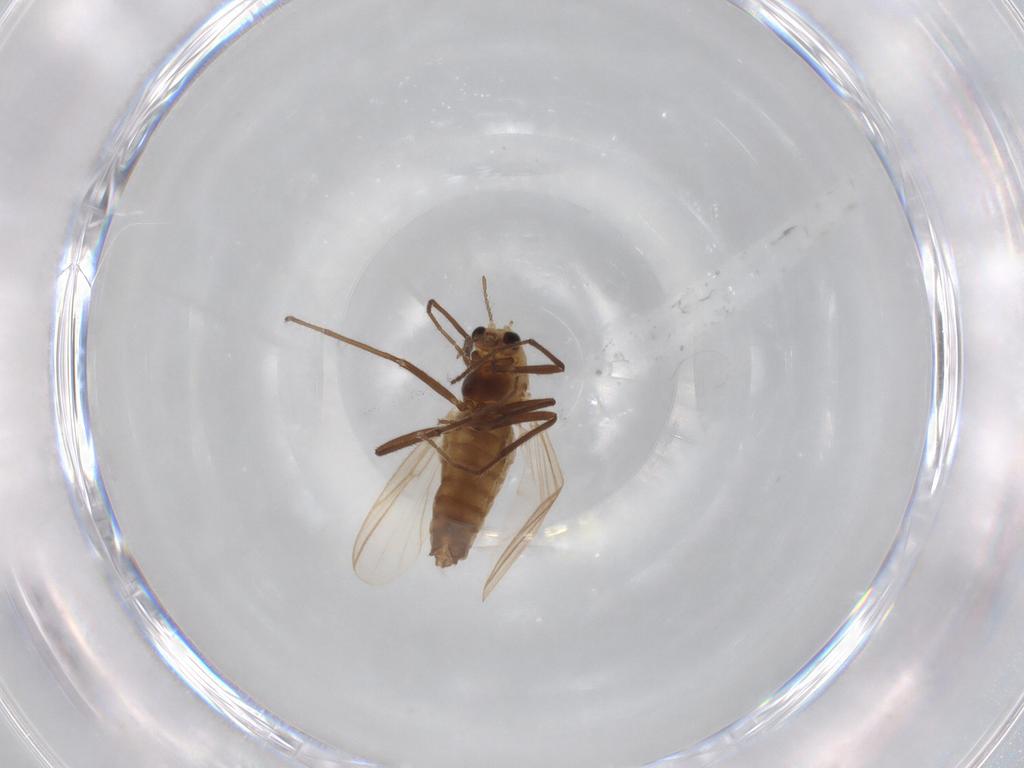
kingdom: Animalia
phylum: Arthropoda
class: Insecta
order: Diptera
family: Chironomidae
